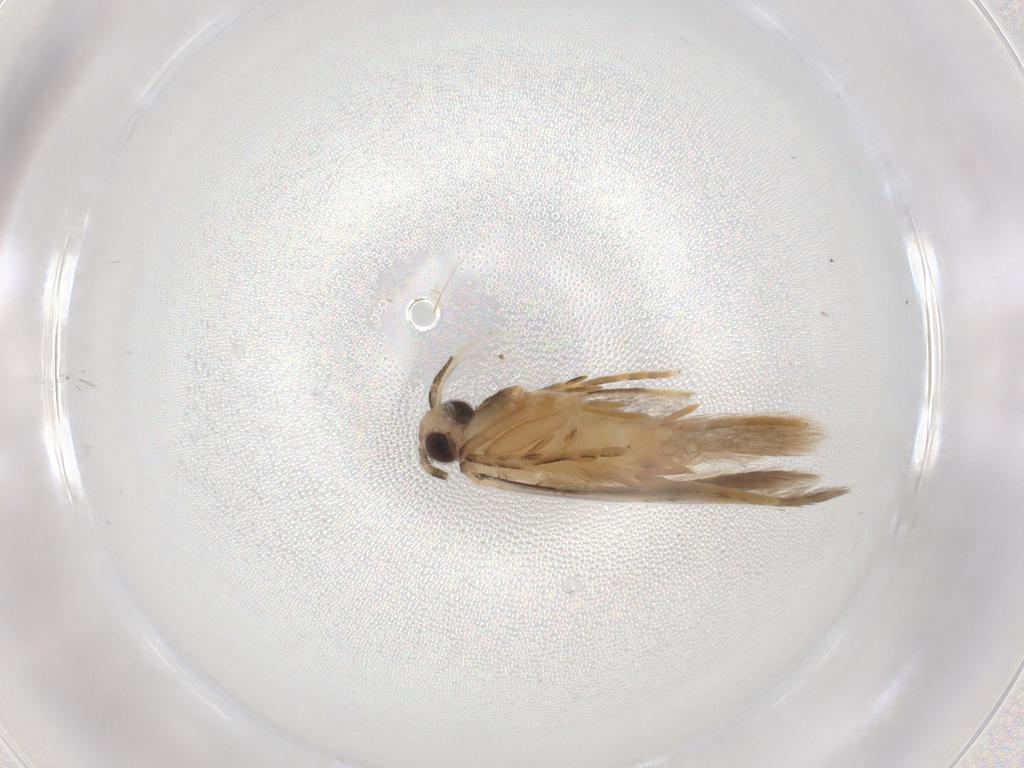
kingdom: Animalia
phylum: Arthropoda
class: Insecta
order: Lepidoptera
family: Autostichidae
